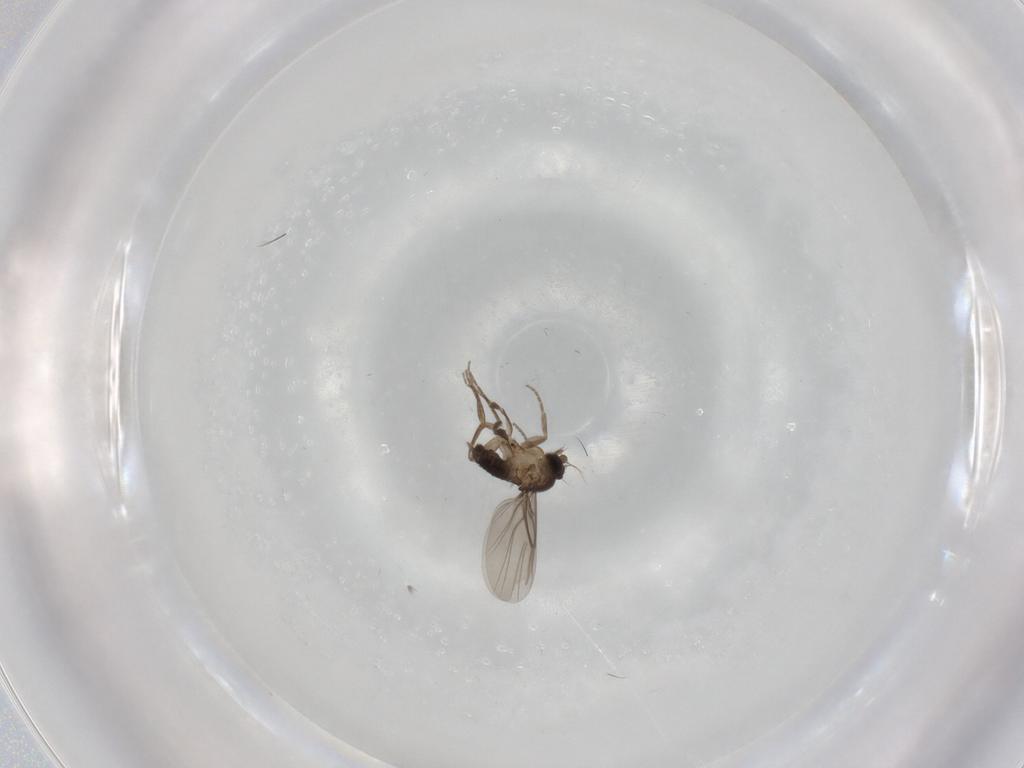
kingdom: Animalia
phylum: Arthropoda
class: Insecta
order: Diptera
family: Phoridae
